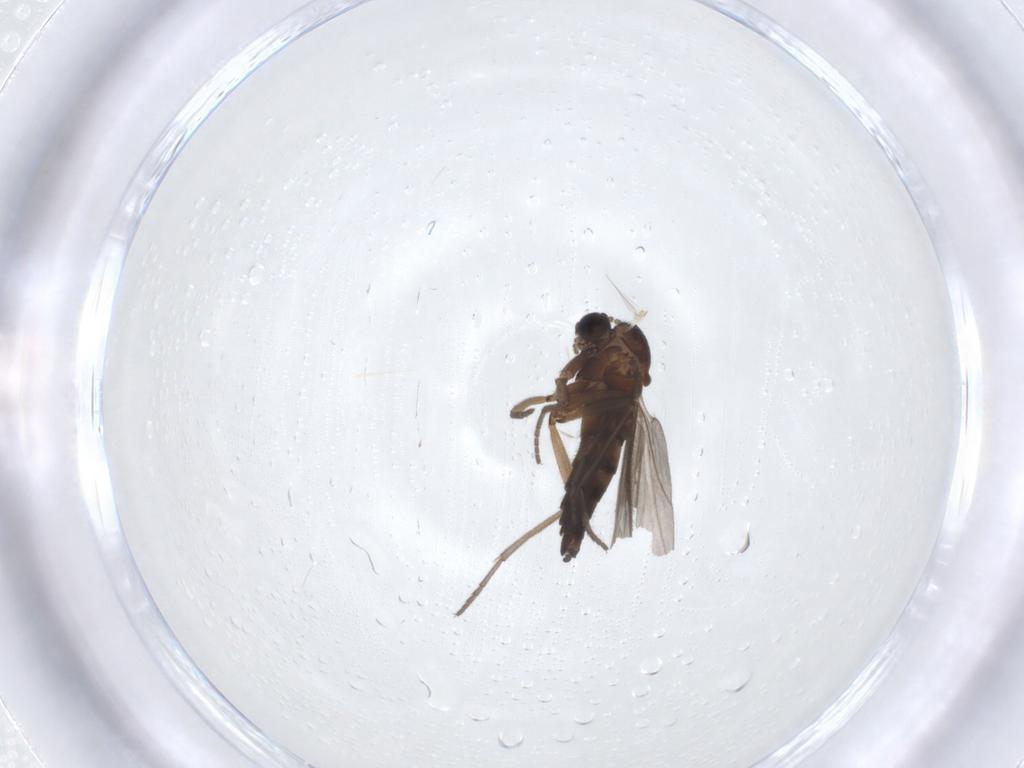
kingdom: Animalia
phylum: Arthropoda
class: Insecta
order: Diptera
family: Sciaridae
